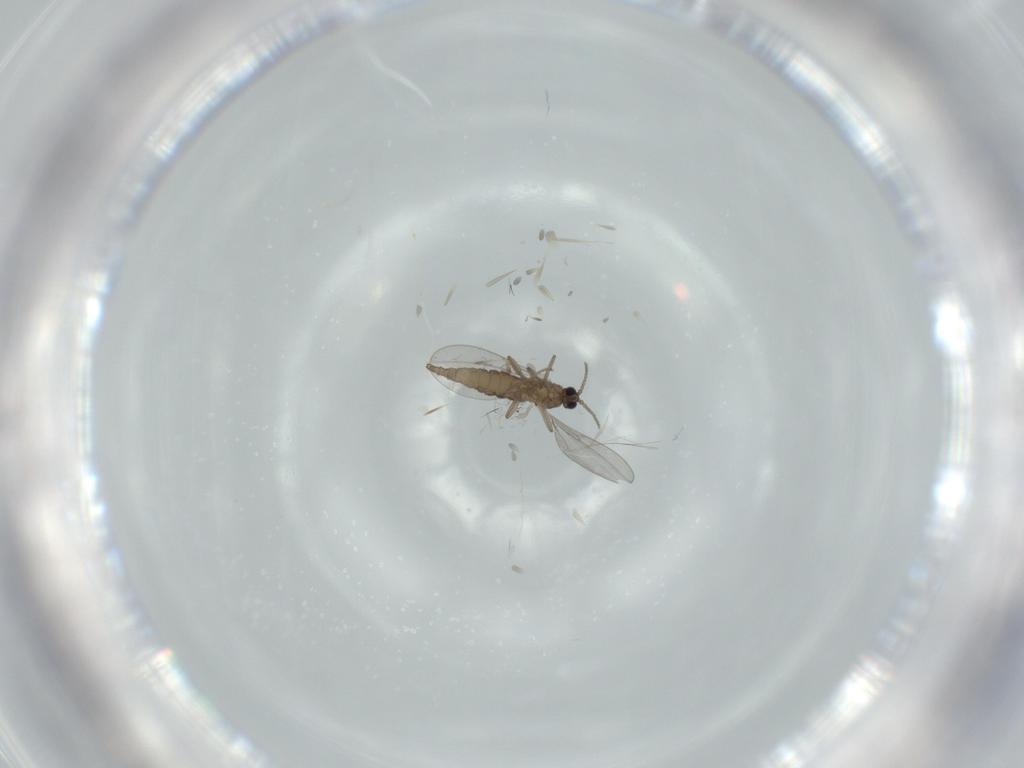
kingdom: Animalia
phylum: Arthropoda
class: Insecta
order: Diptera
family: Cecidomyiidae
